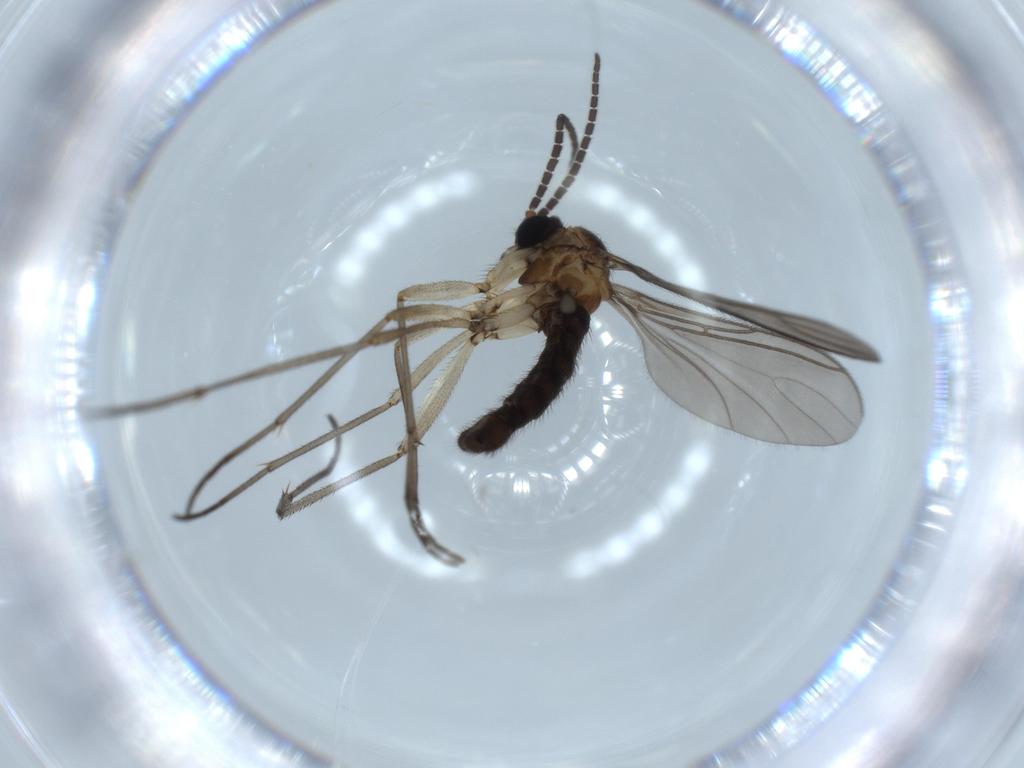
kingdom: Animalia
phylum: Arthropoda
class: Insecta
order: Diptera
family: Sciaridae
